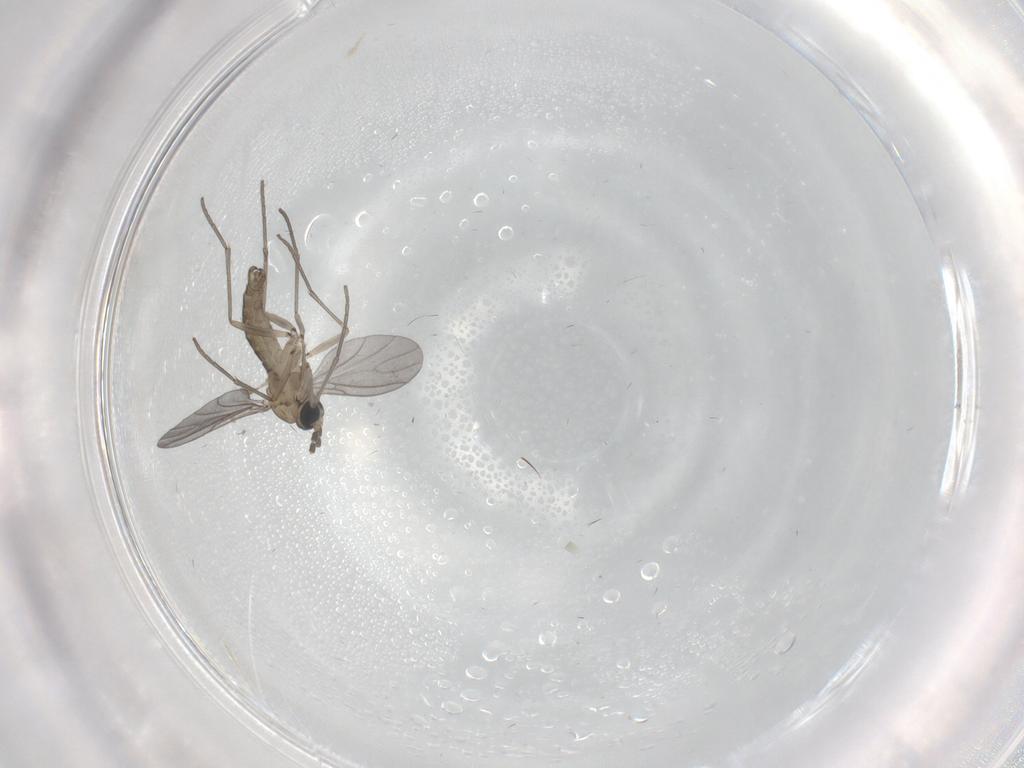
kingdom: Animalia
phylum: Arthropoda
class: Insecta
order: Diptera
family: Sciaridae
